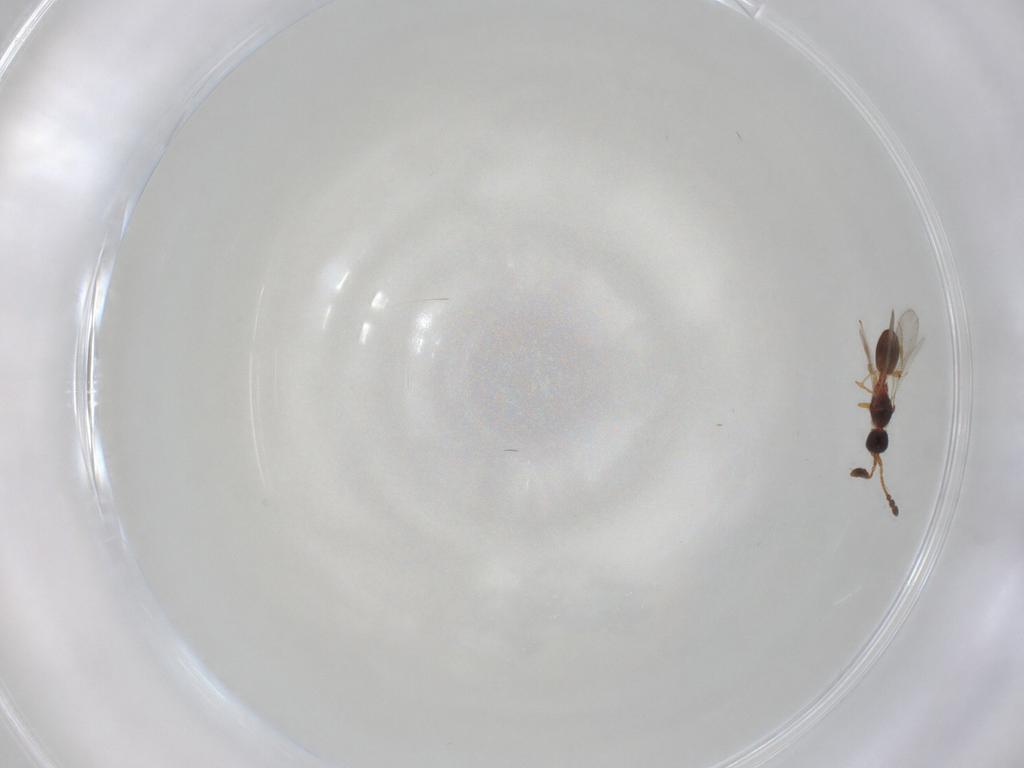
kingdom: Animalia
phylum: Arthropoda
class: Insecta
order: Hymenoptera
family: Diapriidae
